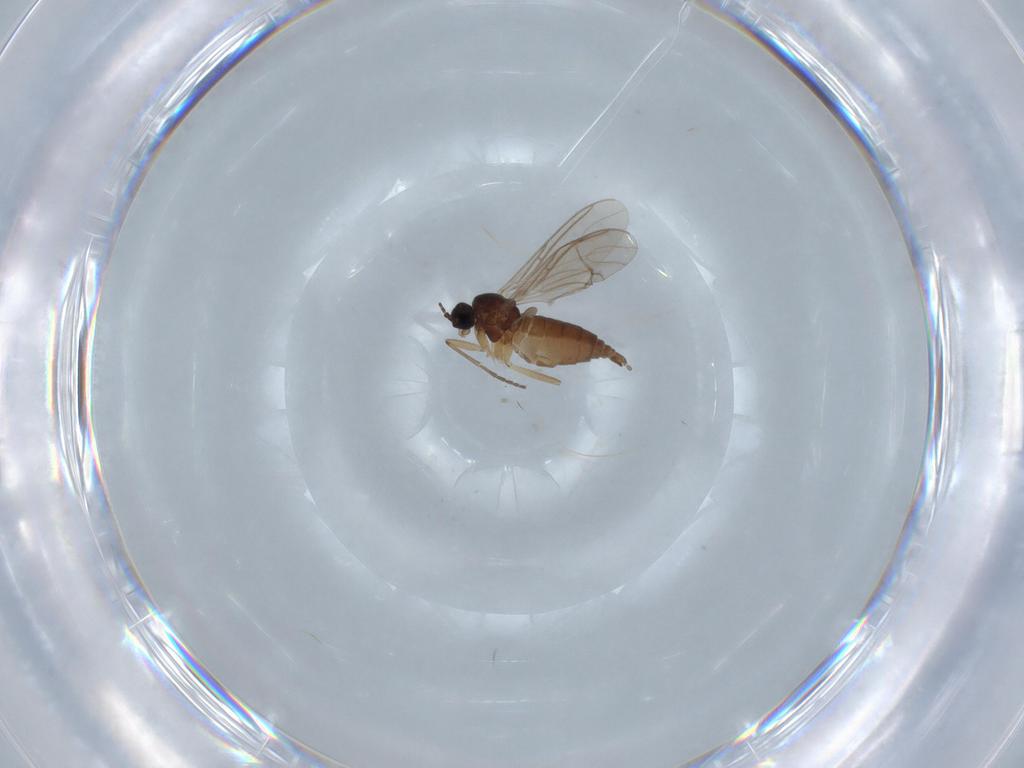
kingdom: Animalia
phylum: Arthropoda
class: Insecta
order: Diptera
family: Sciaridae
